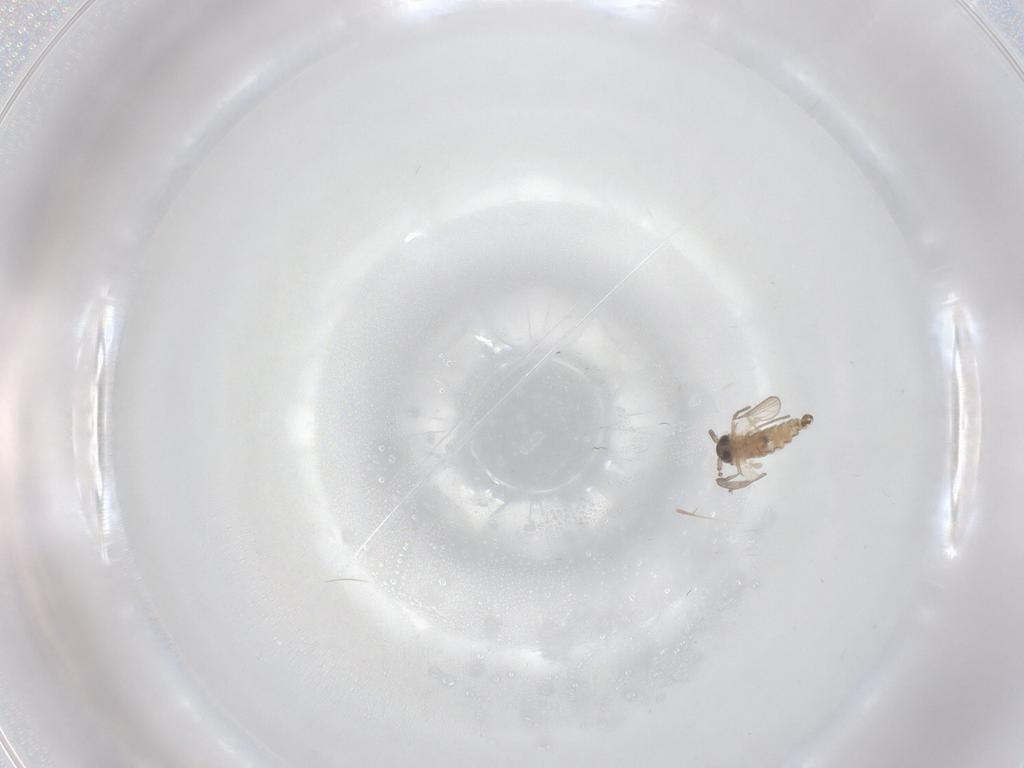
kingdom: Animalia
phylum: Arthropoda
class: Insecta
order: Diptera
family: Psychodidae
